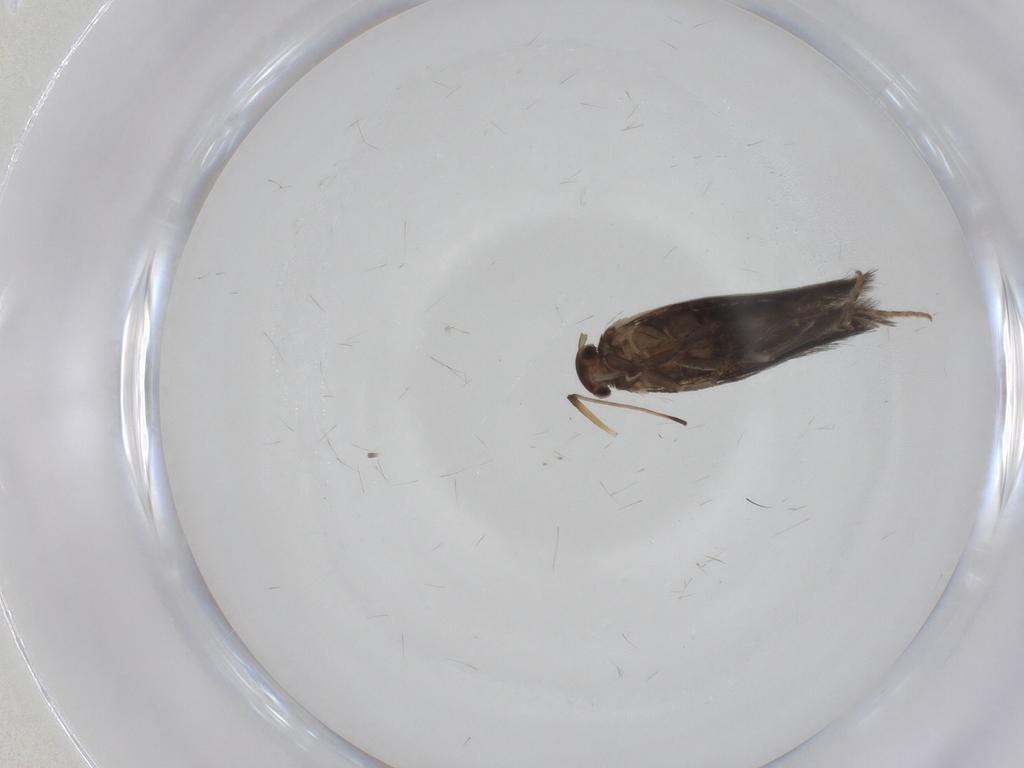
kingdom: Animalia
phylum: Arthropoda
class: Insecta
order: Lepidoptera
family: Elachistidae
